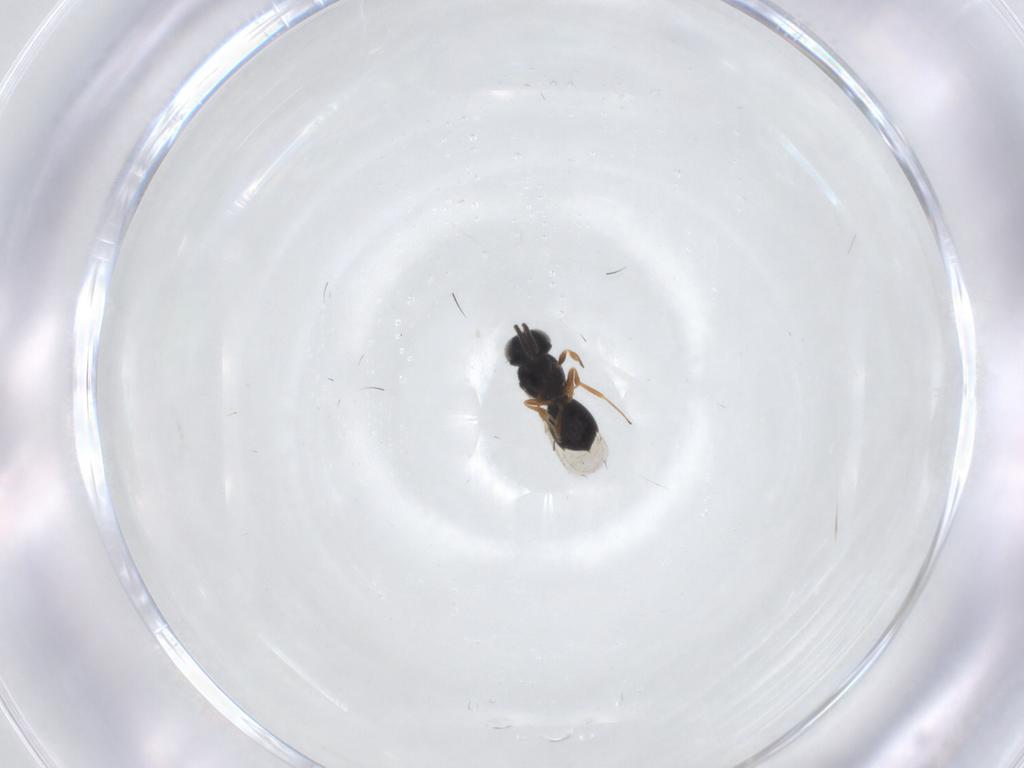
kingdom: Animalia
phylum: Arthropoda
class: Insecta
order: Hymenoptera
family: Scelionidae
